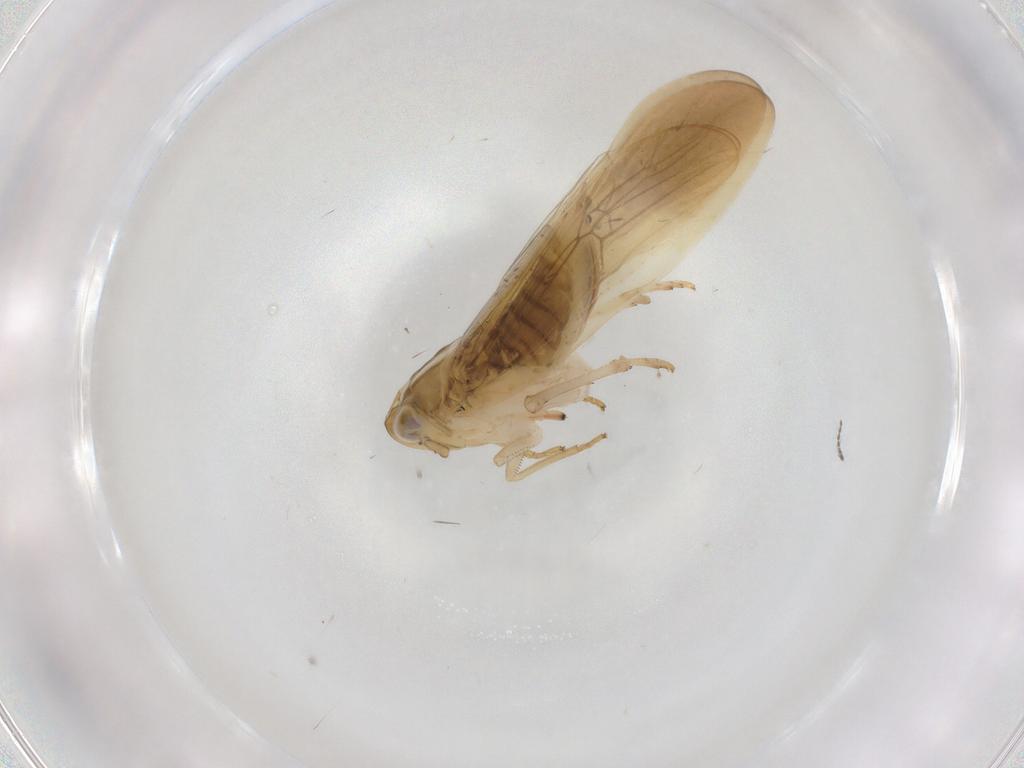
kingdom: Animalia
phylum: Arthropoda
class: Insecta
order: Hemiptera
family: Delphacidae
